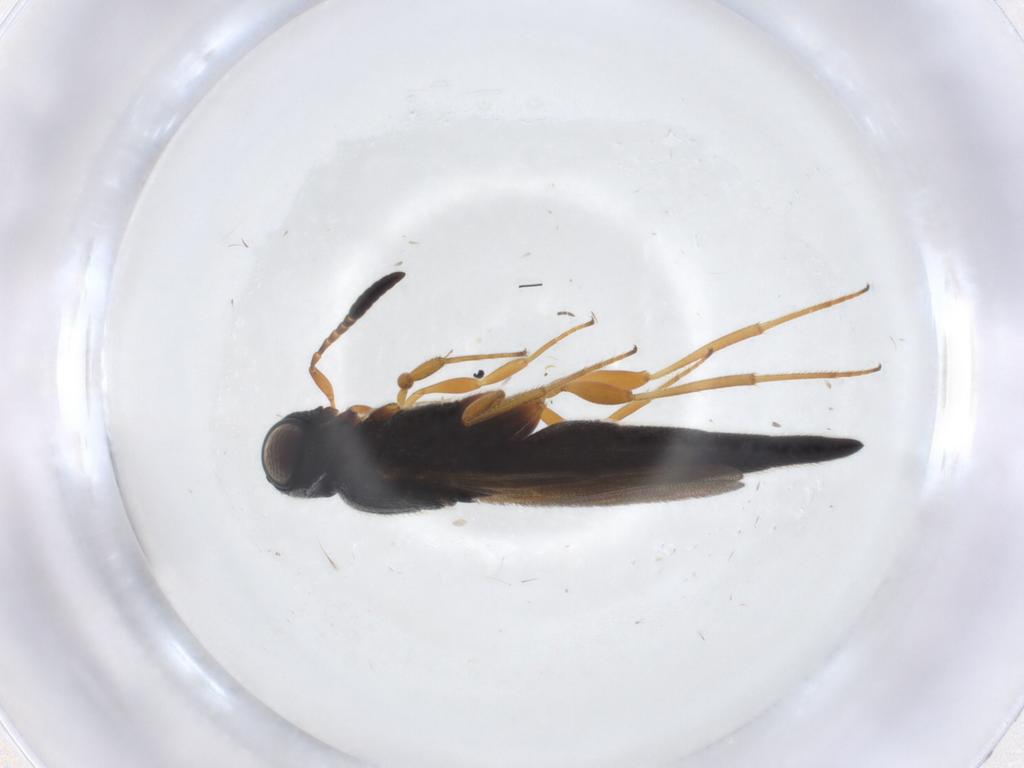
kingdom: Animalia
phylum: Arthropoda
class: Insecta
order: Hymenoptera
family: Scelionidae
